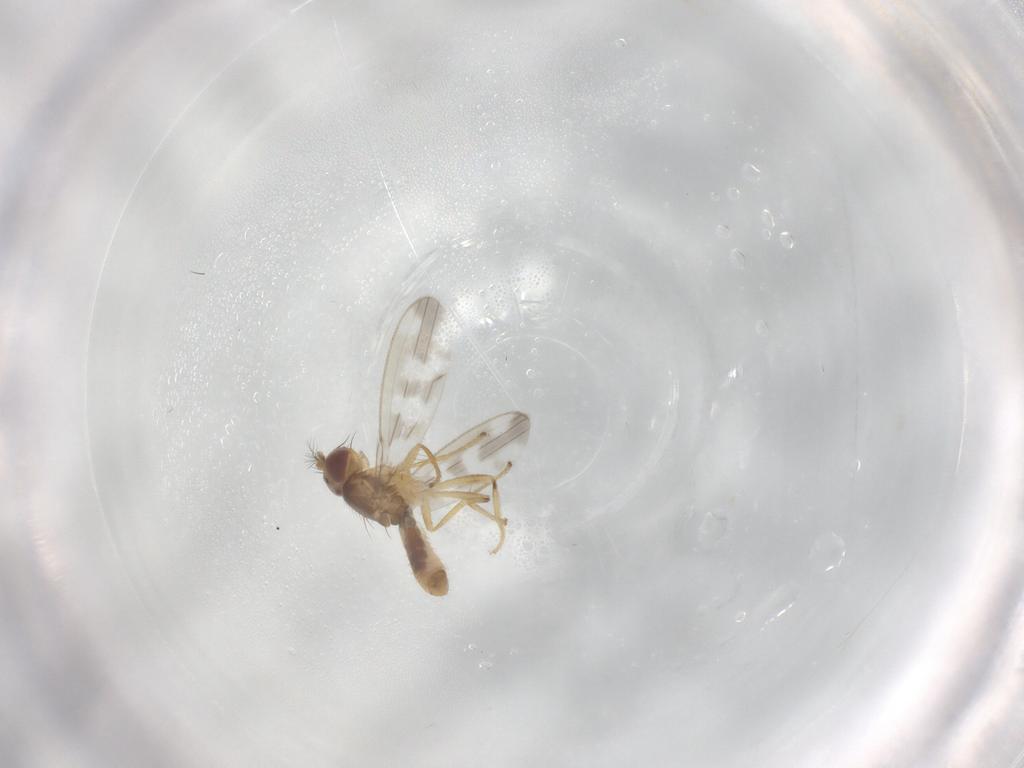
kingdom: Animalia
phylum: Arthropoda
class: Insecta
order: Diptera
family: Periscelididae
